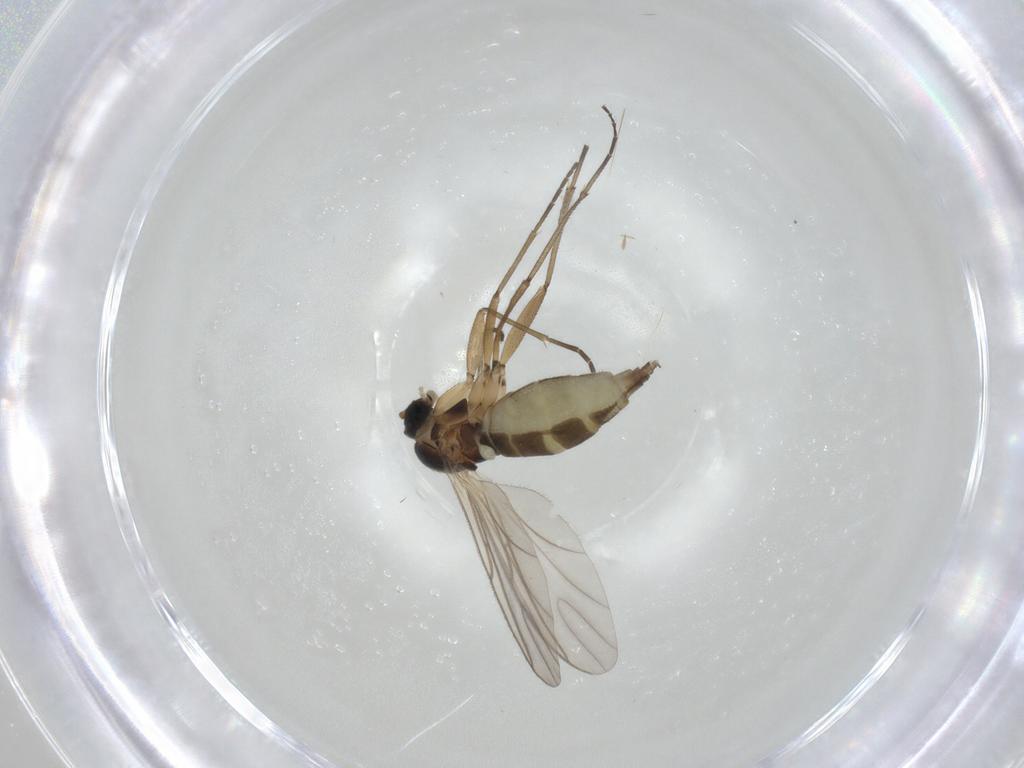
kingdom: Animalia
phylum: Arthropoda
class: Insecta
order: Diptera
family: Sciaridae
